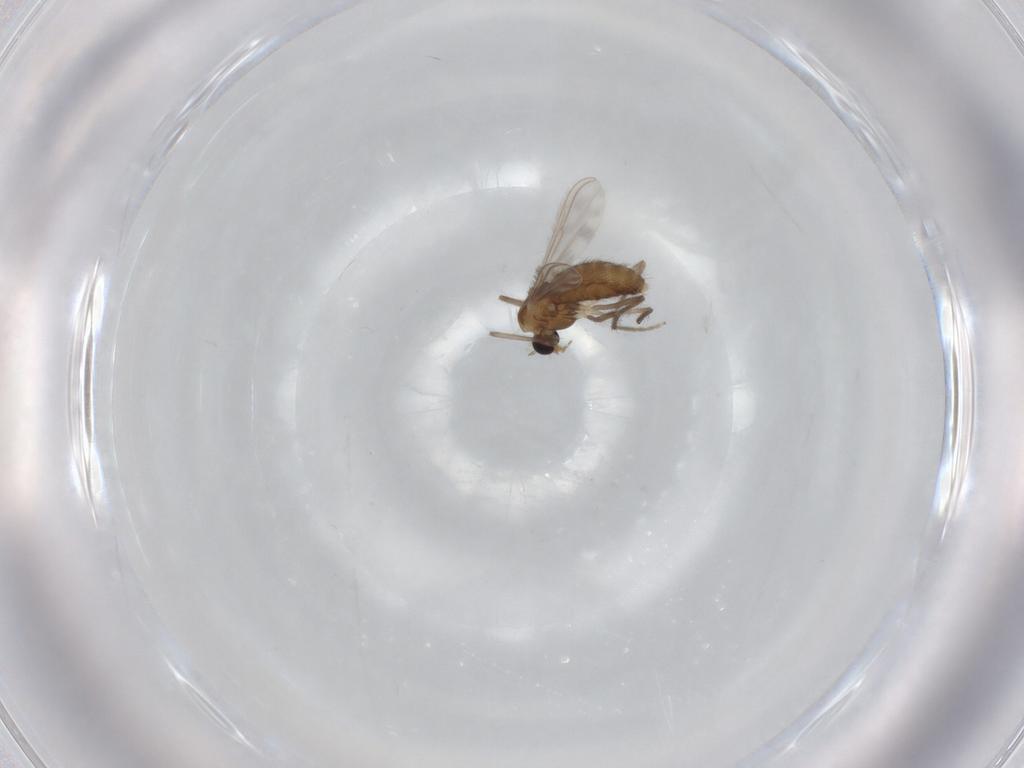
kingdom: Animalia
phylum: Arthropoda
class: Insecta
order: Diptera
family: Chironomidae
